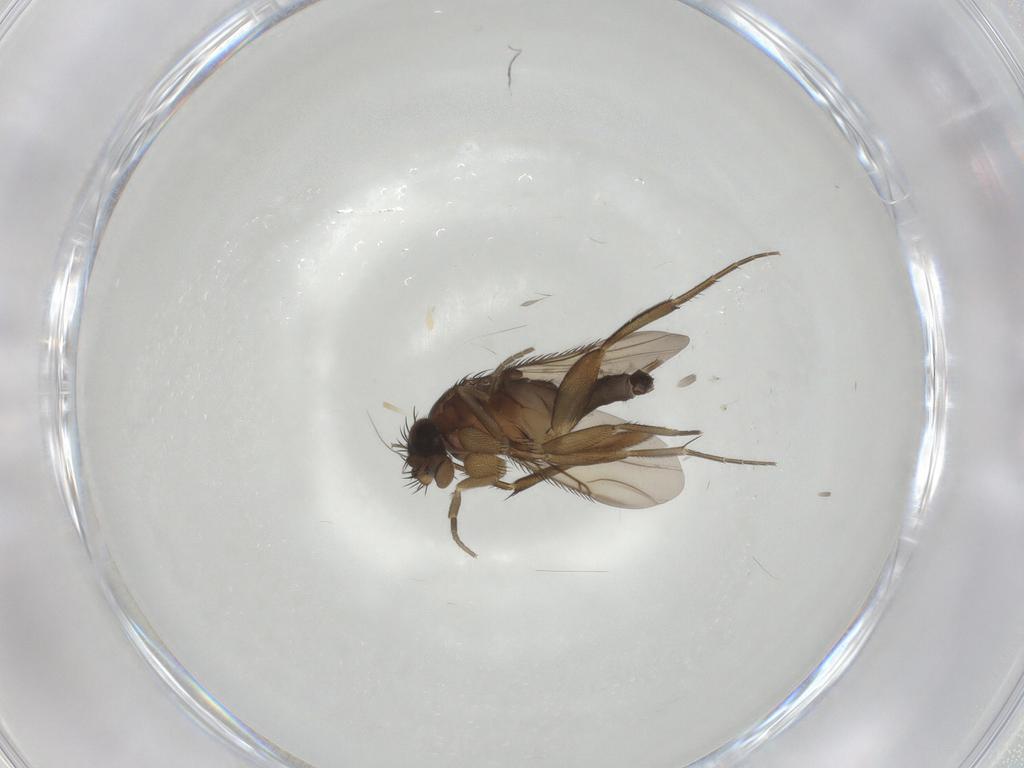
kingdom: Animalia
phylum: Arthropoda
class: Insecta
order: Diptera
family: Phoridae
